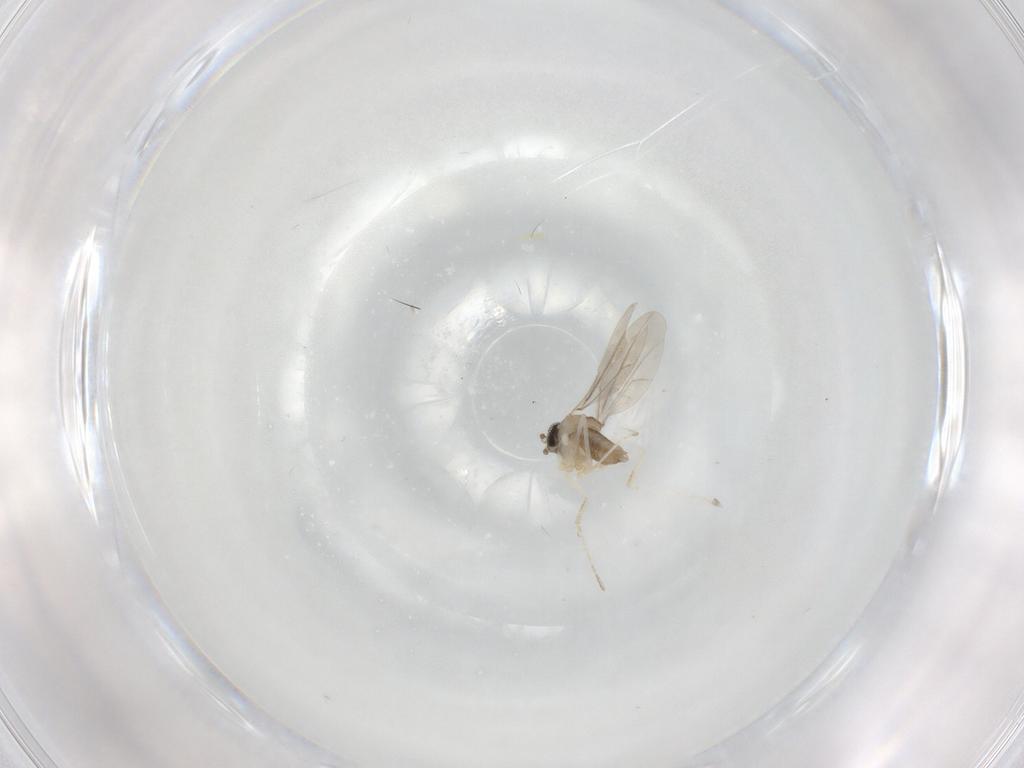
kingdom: Animalia
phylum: Arthropoda
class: Insecta
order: Diptera
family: Cecidomyiidae
